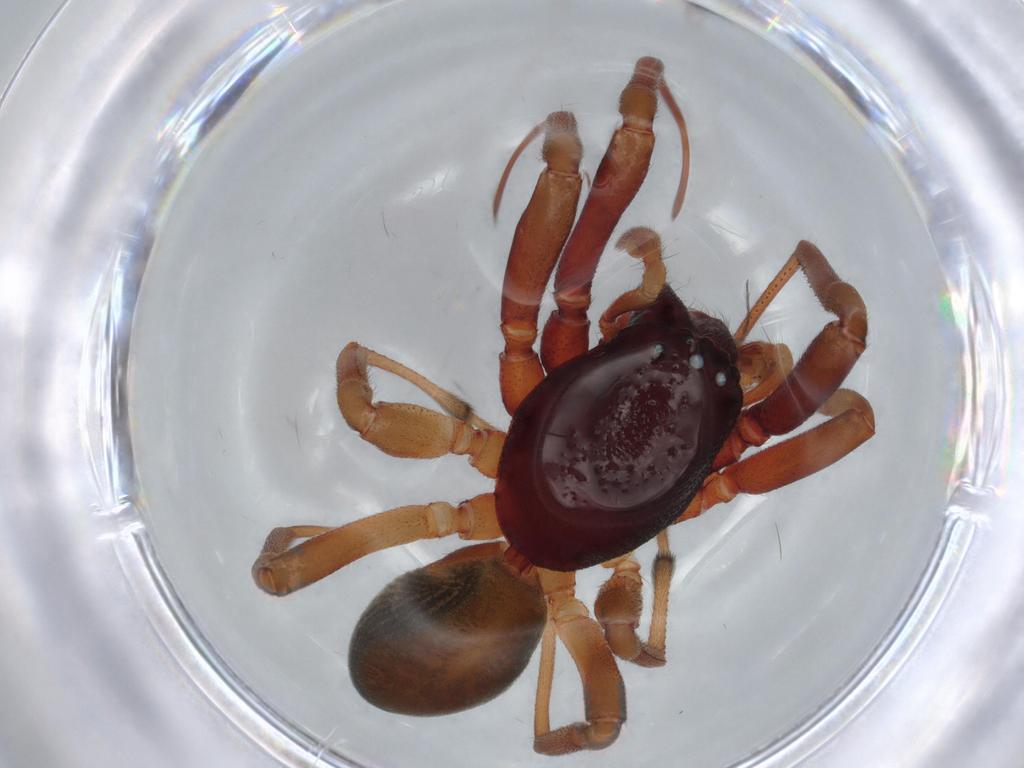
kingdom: Animalia
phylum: Arthropoda
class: Arachnida
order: Araneae
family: Trachelidae
